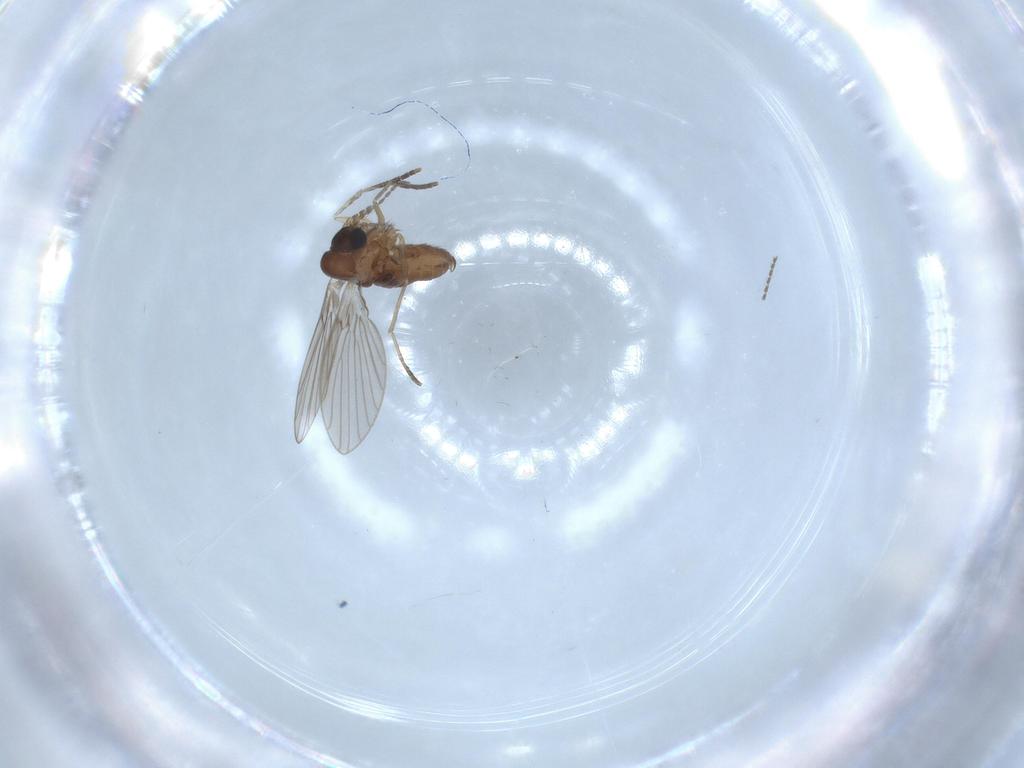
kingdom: Animalia
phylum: Arthropoda
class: Insecta
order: Diptera
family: Psychodidae
